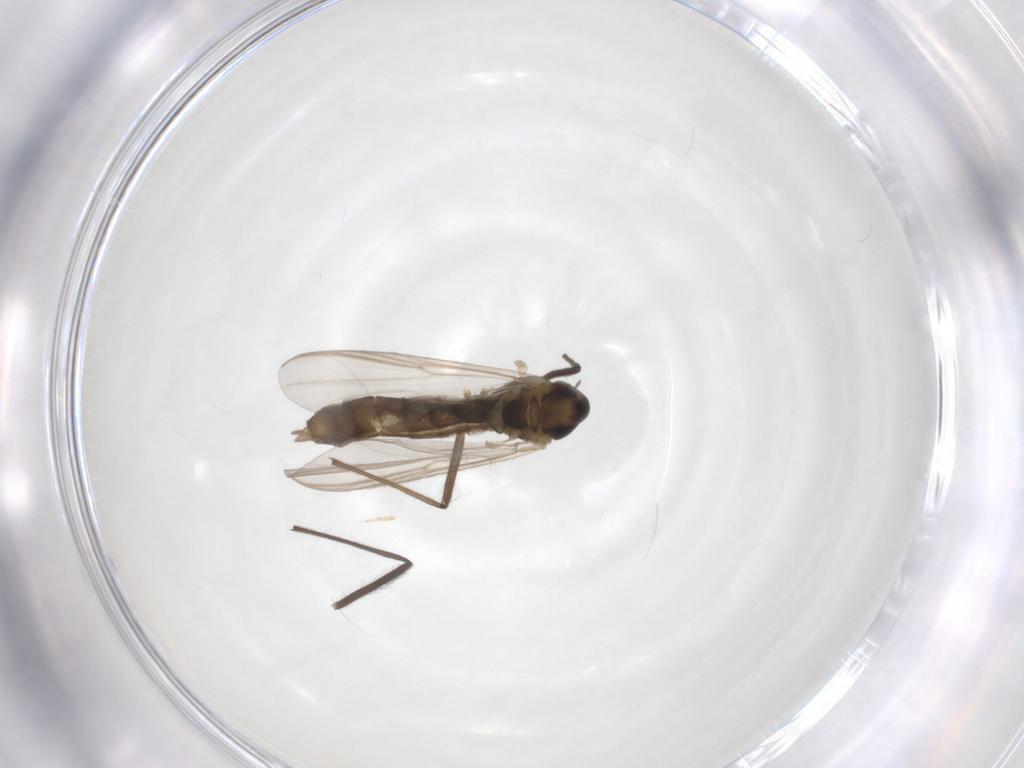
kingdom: Animalia
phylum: Arthropoda
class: Insecta
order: Diptera
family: Chironomidae
